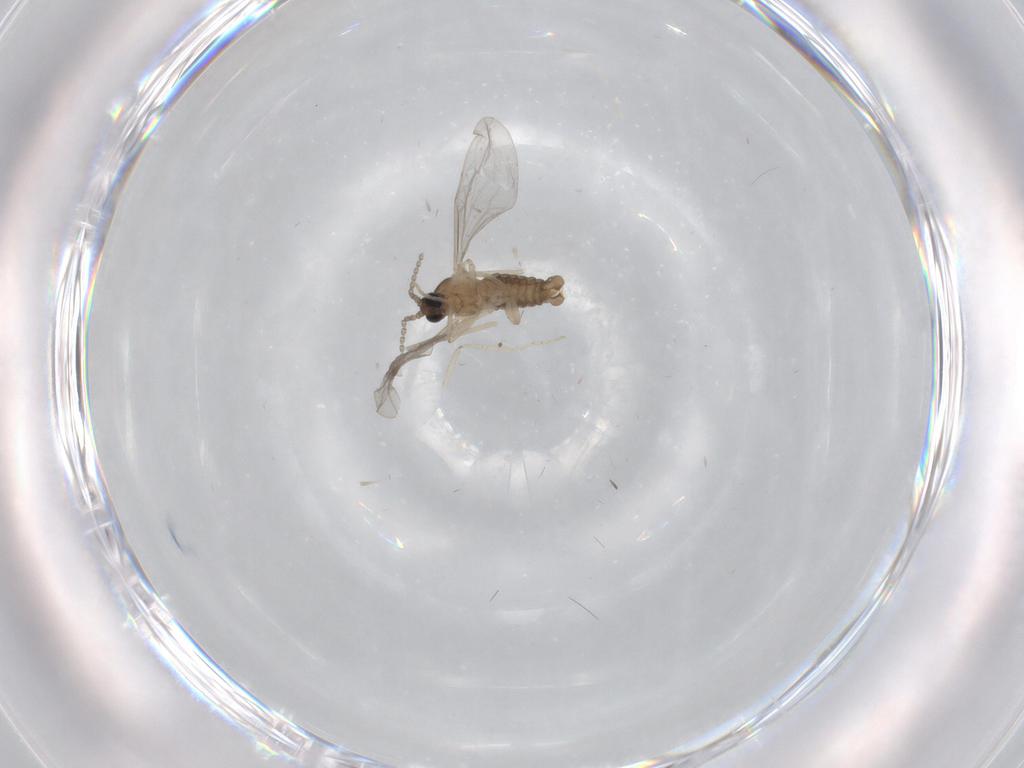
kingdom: Animalia
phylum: Arthropoda
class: Insecta
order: Diptera
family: Cecidomyiidae
